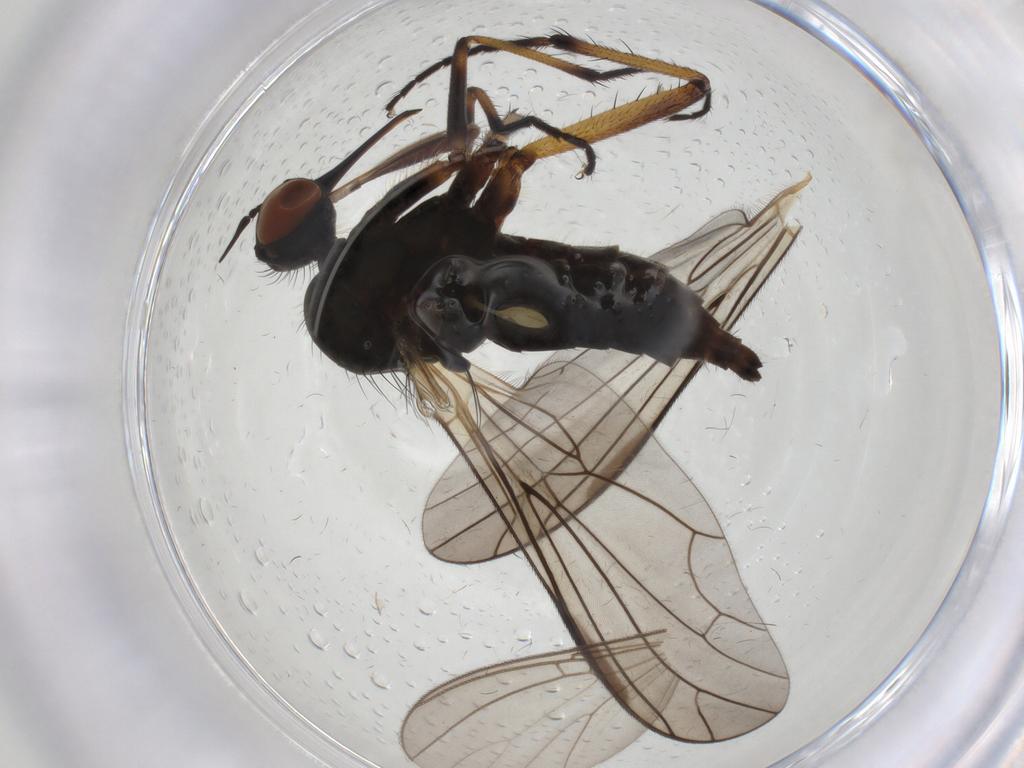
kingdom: Animalia
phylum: Arthropoda
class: Insecta
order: Diptera
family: Empididae
